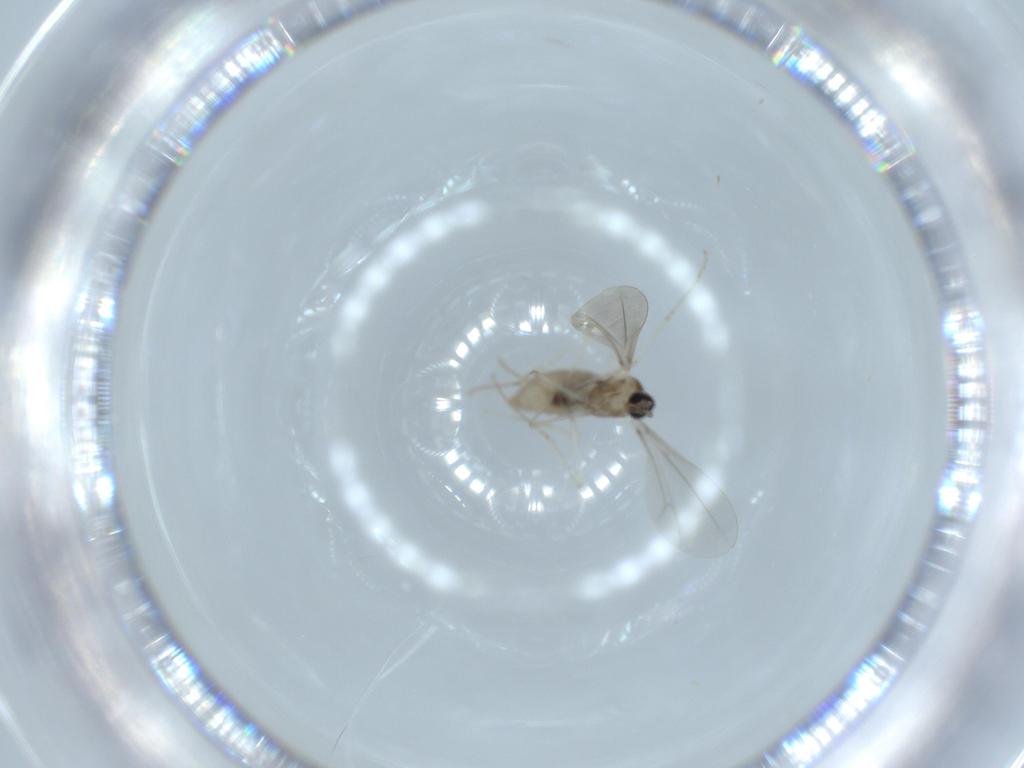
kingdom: Animalia
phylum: Arthropoda
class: Insecta
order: Diptera
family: Cecidomyiidae
